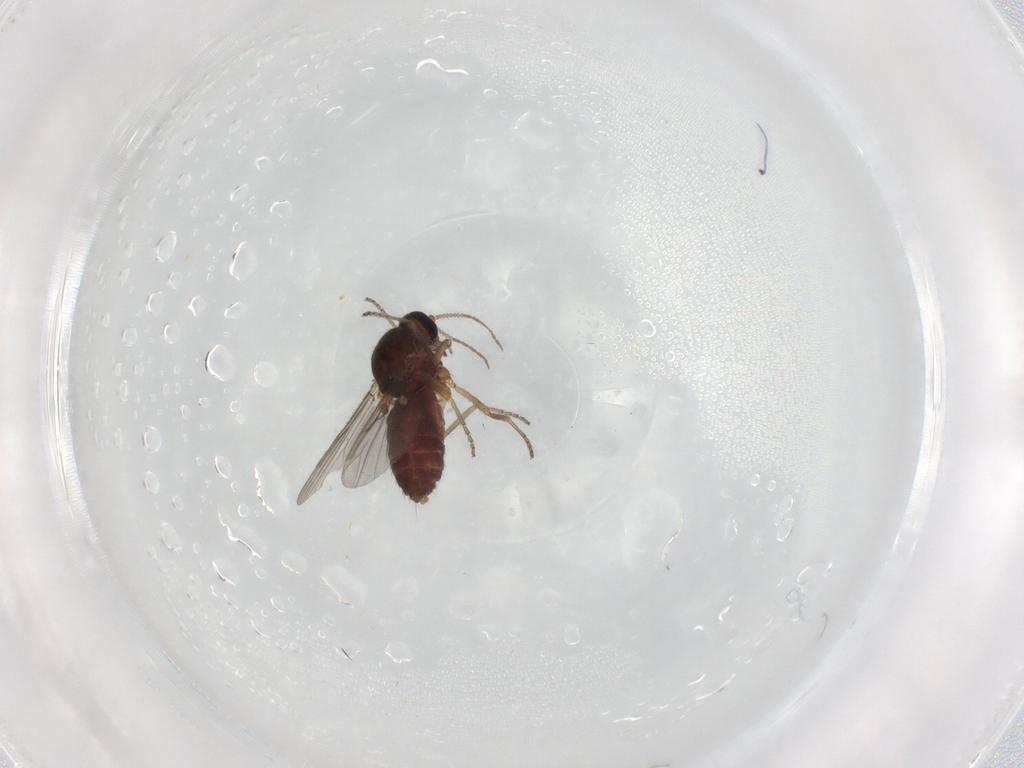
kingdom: Animalia
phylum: Arthropoda
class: Insecta
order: Diptera
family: Ceratopogonidae
